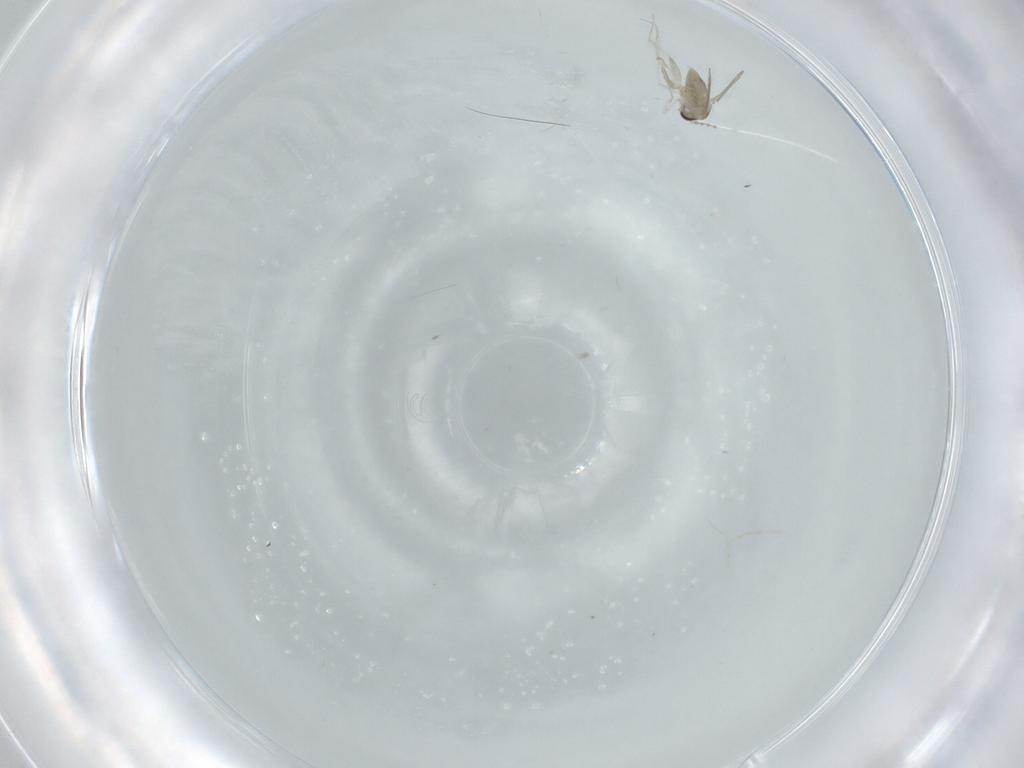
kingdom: Animalia
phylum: Arthropoda
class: Insecta
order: Diptera
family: Cecidomyiidae
